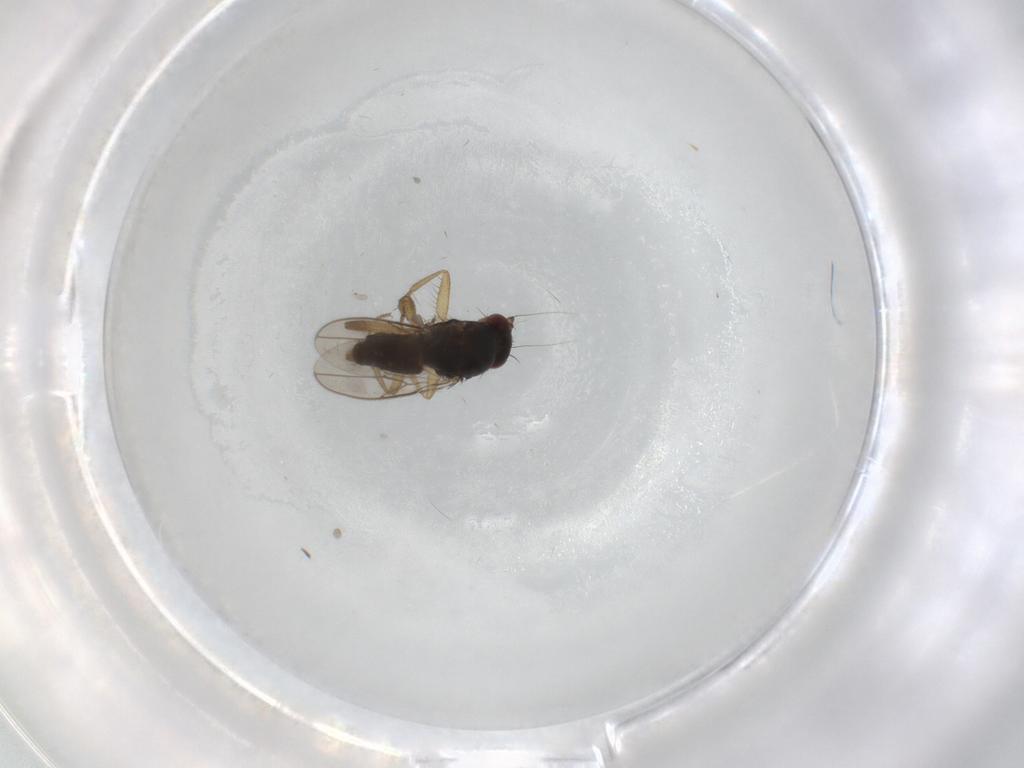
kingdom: Animalia
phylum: Arthropoda
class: Insecta
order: Diptera
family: Sphaeroceridae
